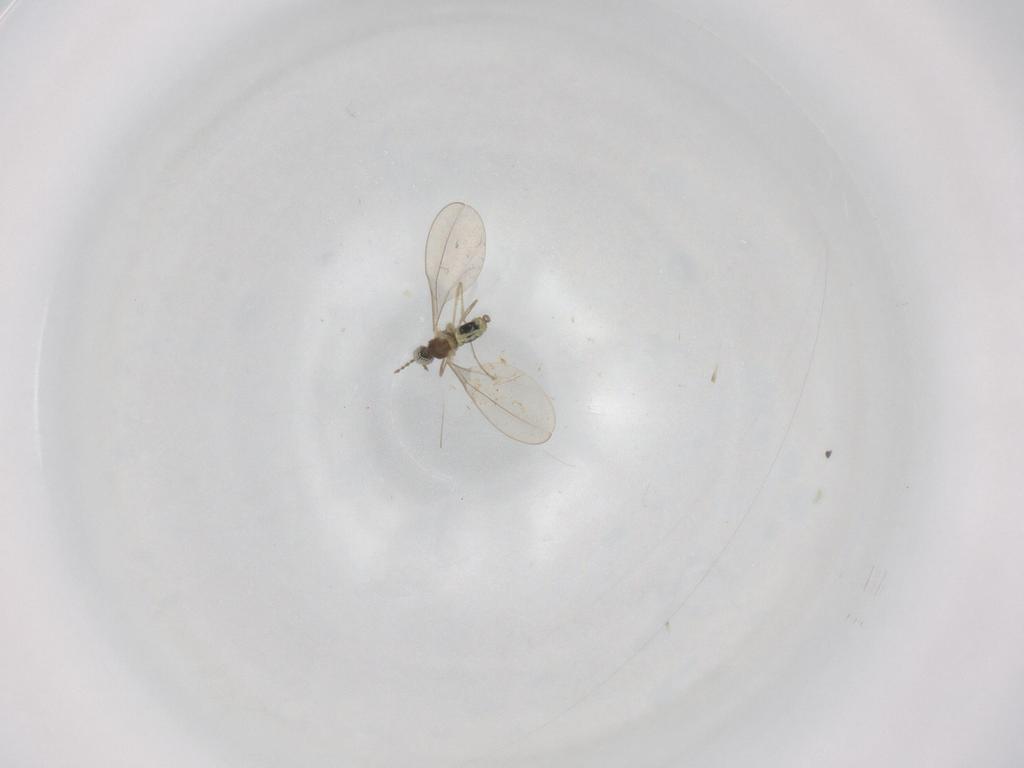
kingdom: Animalia
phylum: Arthropoda
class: Insecta
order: Diptera
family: Cecidomyiidae
